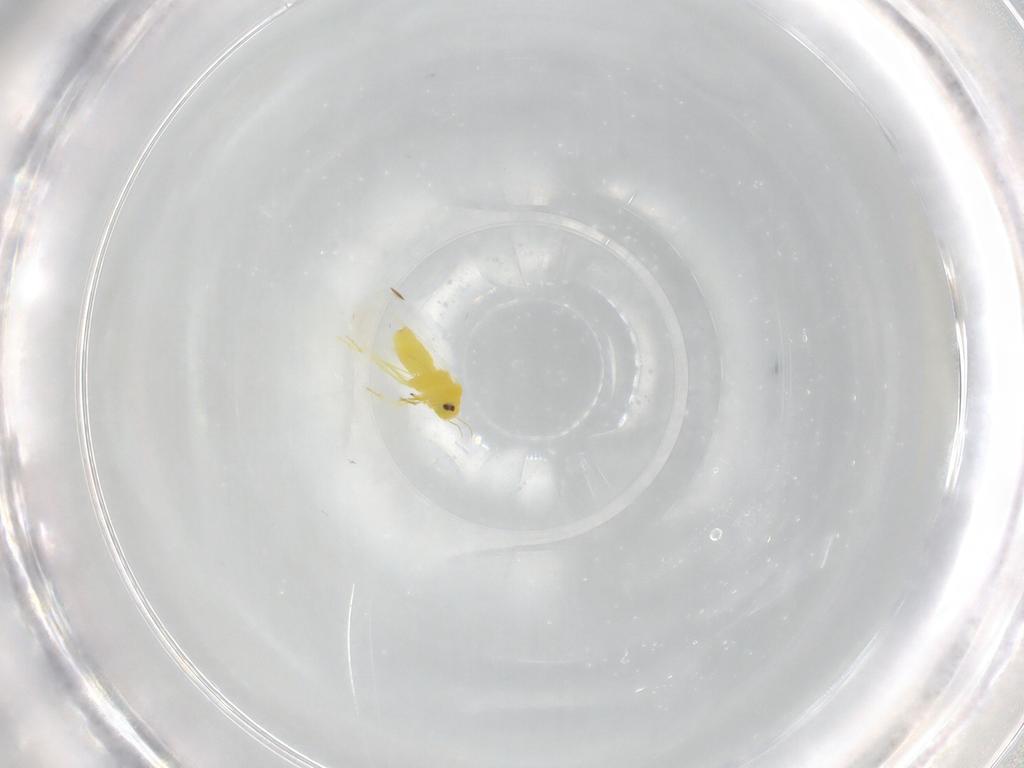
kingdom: Animalia
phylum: Arthropoda
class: Insecta
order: Hemiptera
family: Aleyrodidae
